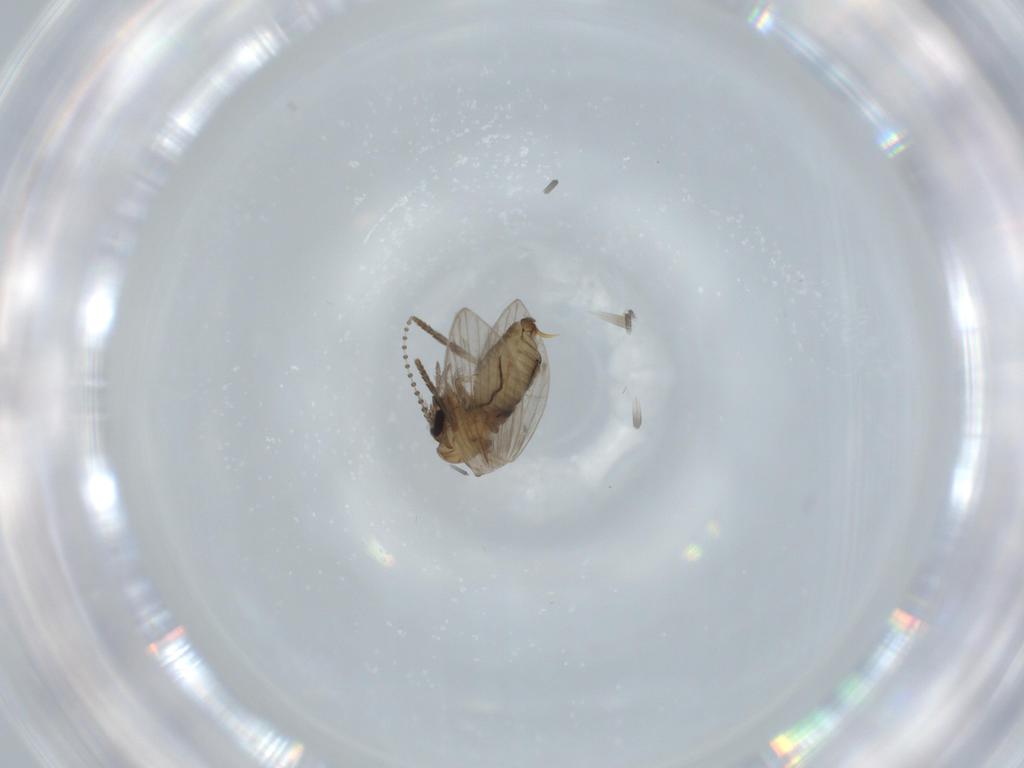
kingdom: Animalia
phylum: Arthropoda
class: Insecta
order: Diptera
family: Psychodidae
